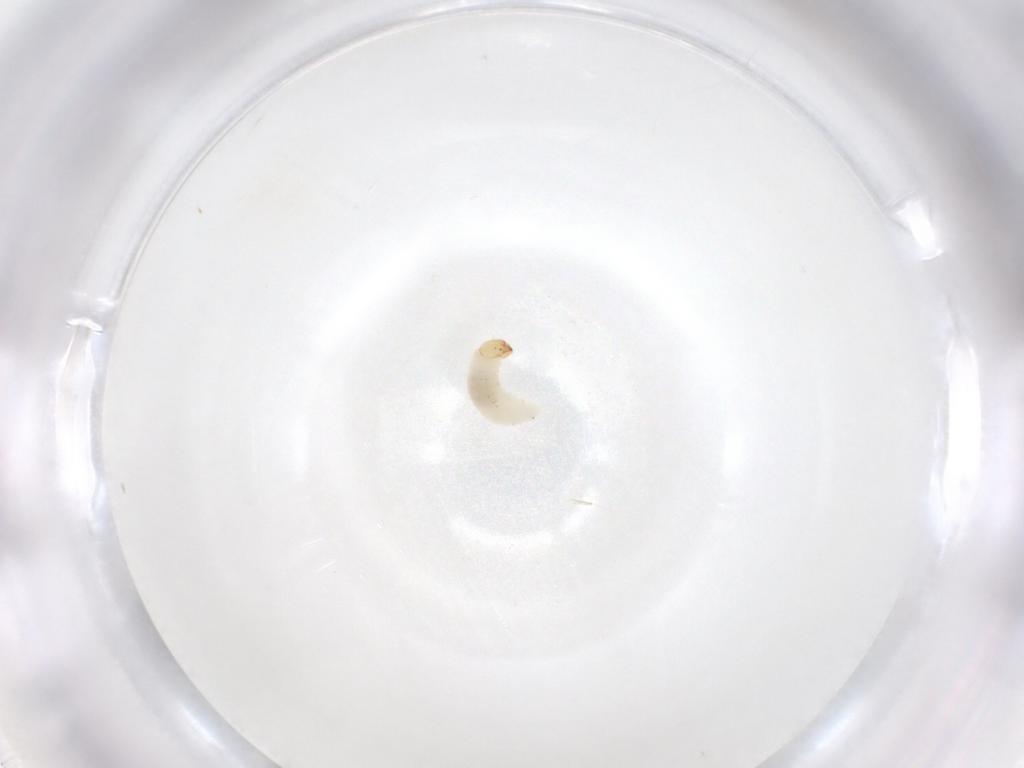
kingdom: Animalia
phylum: Arthropoda
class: Insecta
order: Coleoptera
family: Curculionidae
